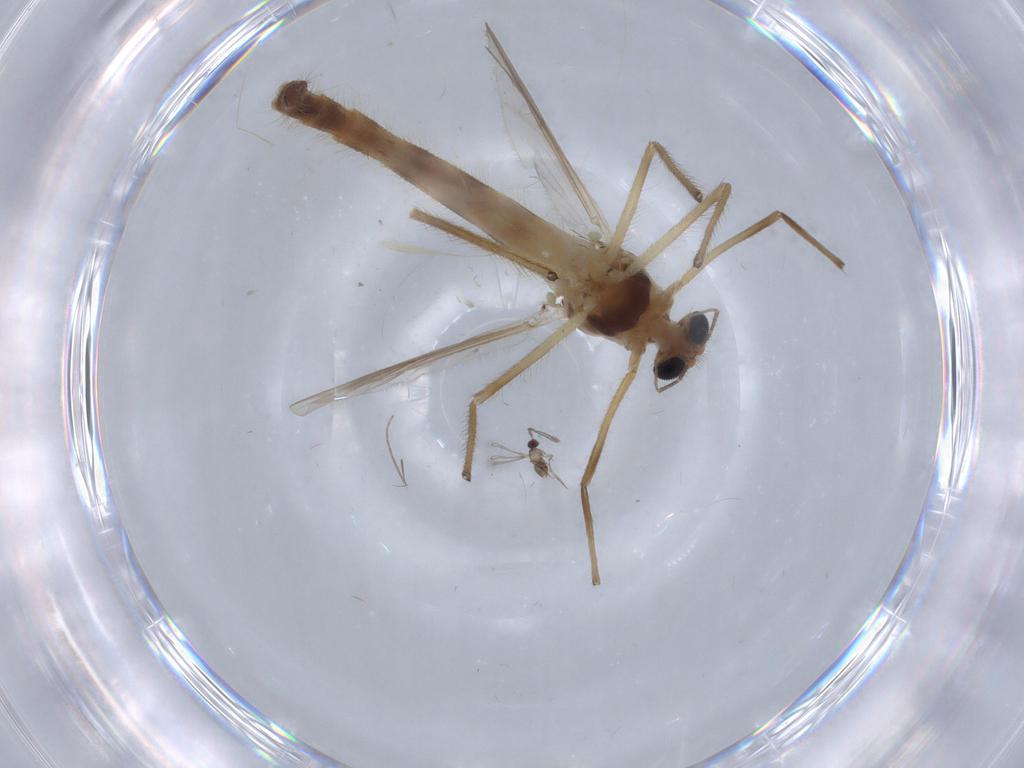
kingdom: Animalia
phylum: Arthropoda
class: Insecta
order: Diptera
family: Chironomidae
